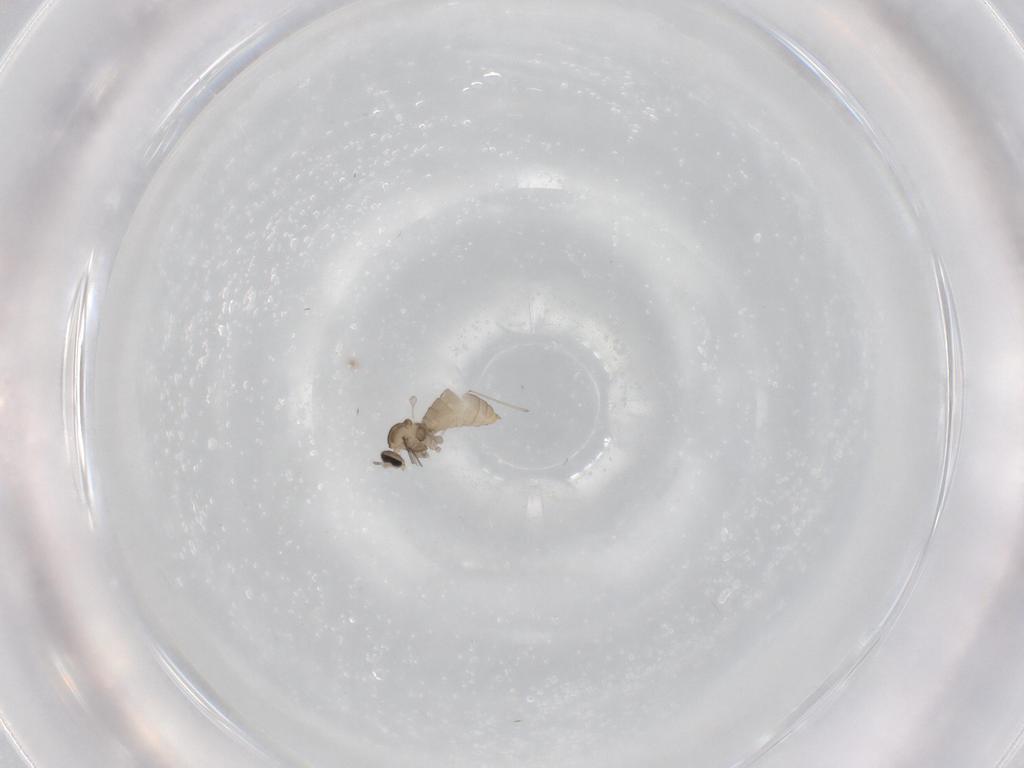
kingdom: Animalia
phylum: Arthropoda
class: Insecta
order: Diptera
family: Cecidomyiidae
